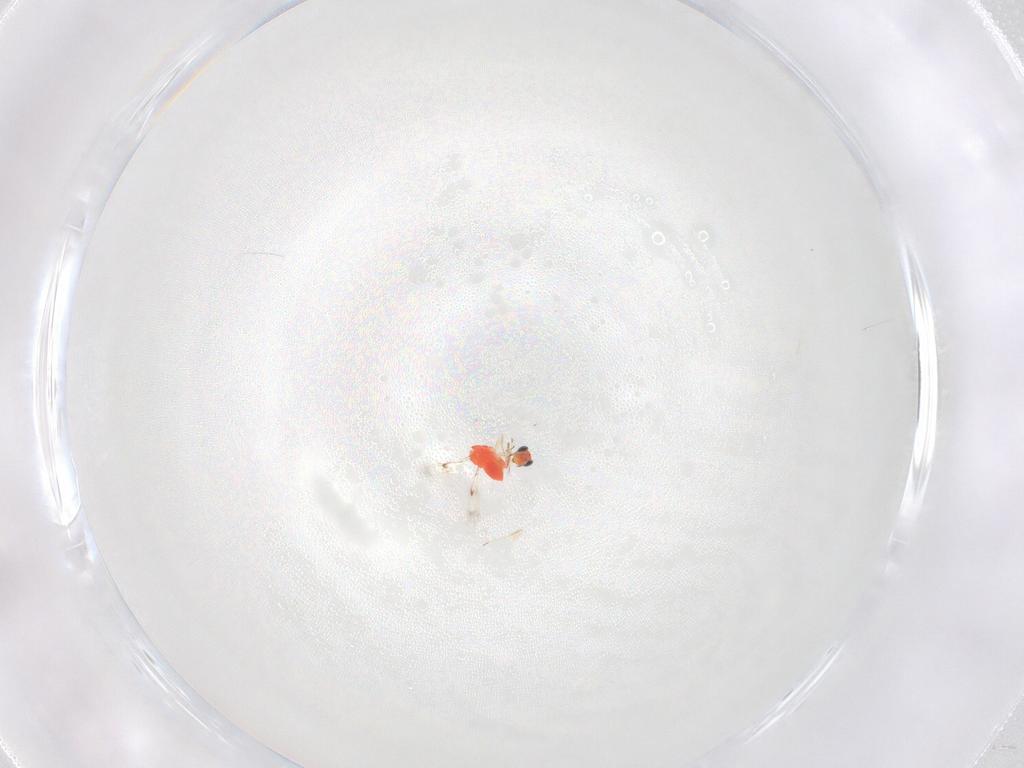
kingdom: Animalia
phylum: Arthropoda
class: Insecta
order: Hymenoptera
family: Trichogrammatidae
